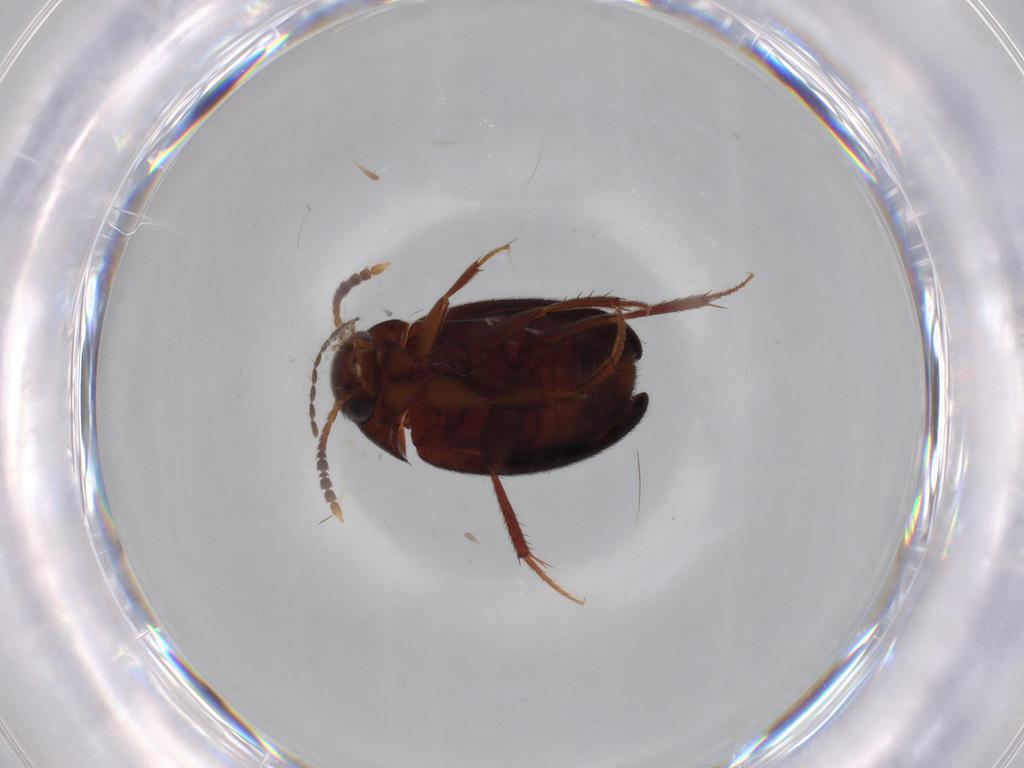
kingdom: Animalia
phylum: Arthropoda
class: Insecta
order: Coleoptera
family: Leiodidae
